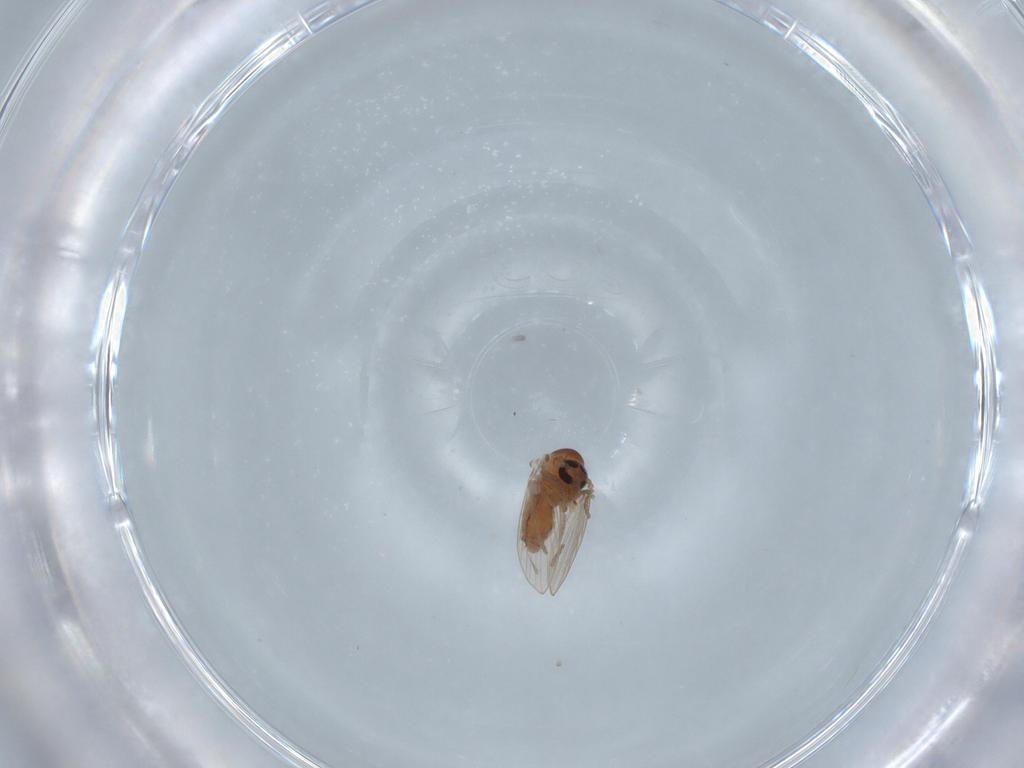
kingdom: Animalia
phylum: Arthropoda
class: Insecta
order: Diptera
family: Psychodidae
